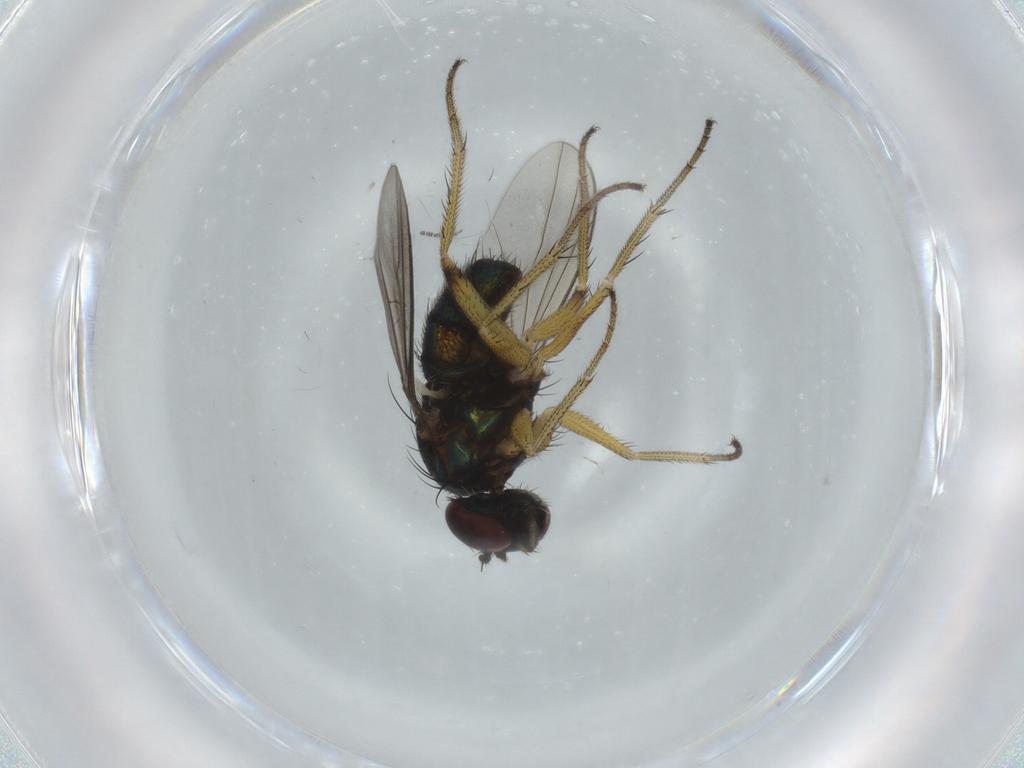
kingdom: Animalia
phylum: Arthropoda
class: Insecta
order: Diptera
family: Dolichopodidae
